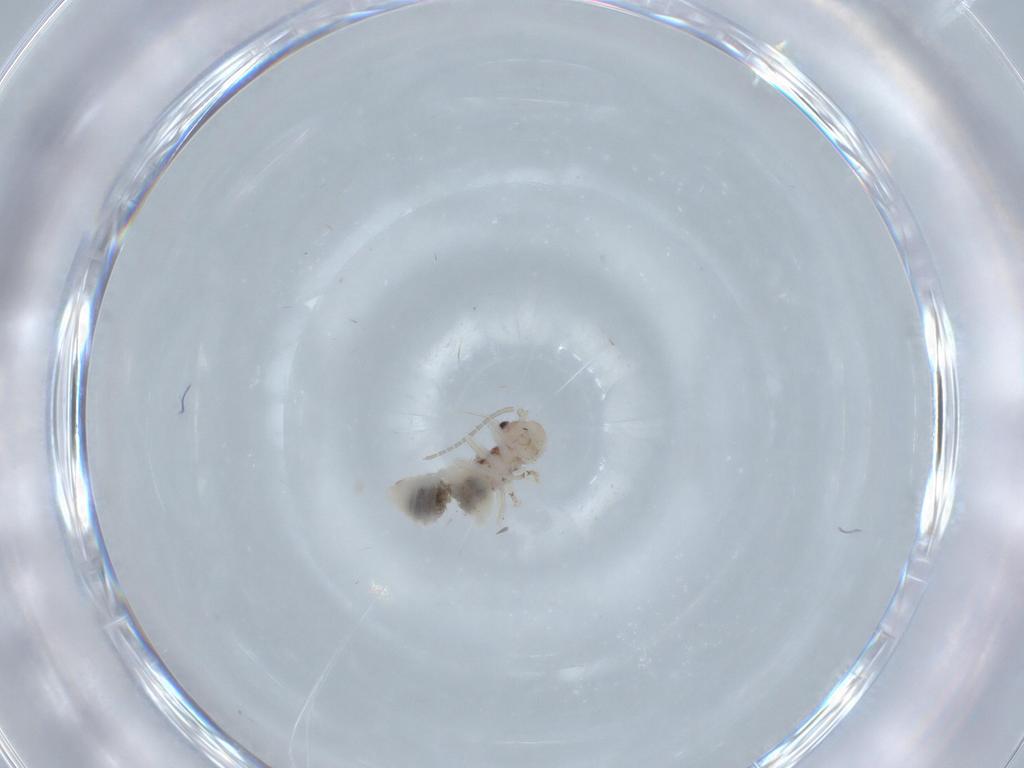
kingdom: Animalia
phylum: Arthropoda
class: Insecta
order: Psocodea
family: Amphipsocidae
